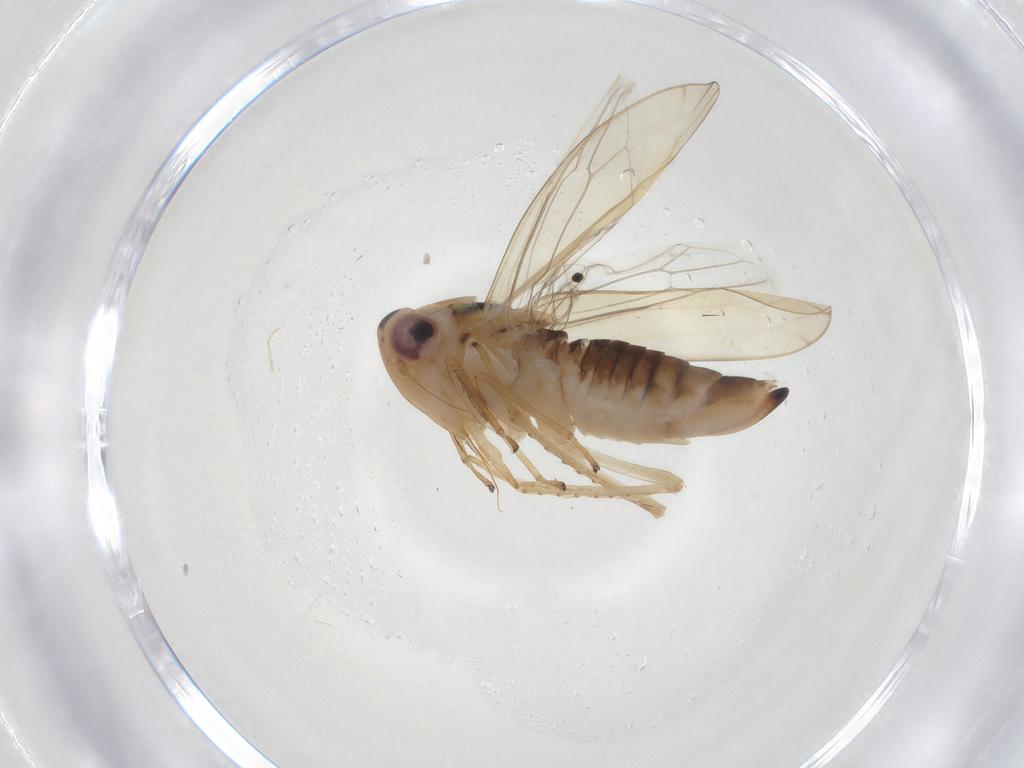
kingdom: Animalia
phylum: Arthropoda
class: Insecta
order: Hemiptera
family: Cicadellidae
